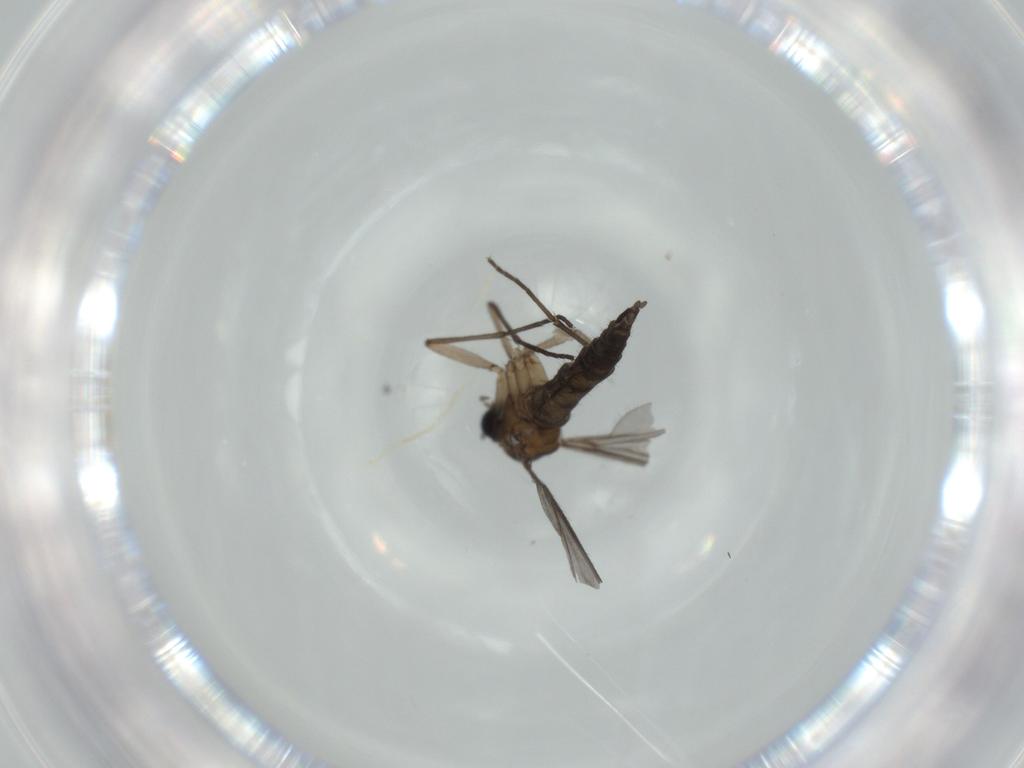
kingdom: Animalia
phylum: Arthropoda
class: Insecta
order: Diptera
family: Sciaridae
